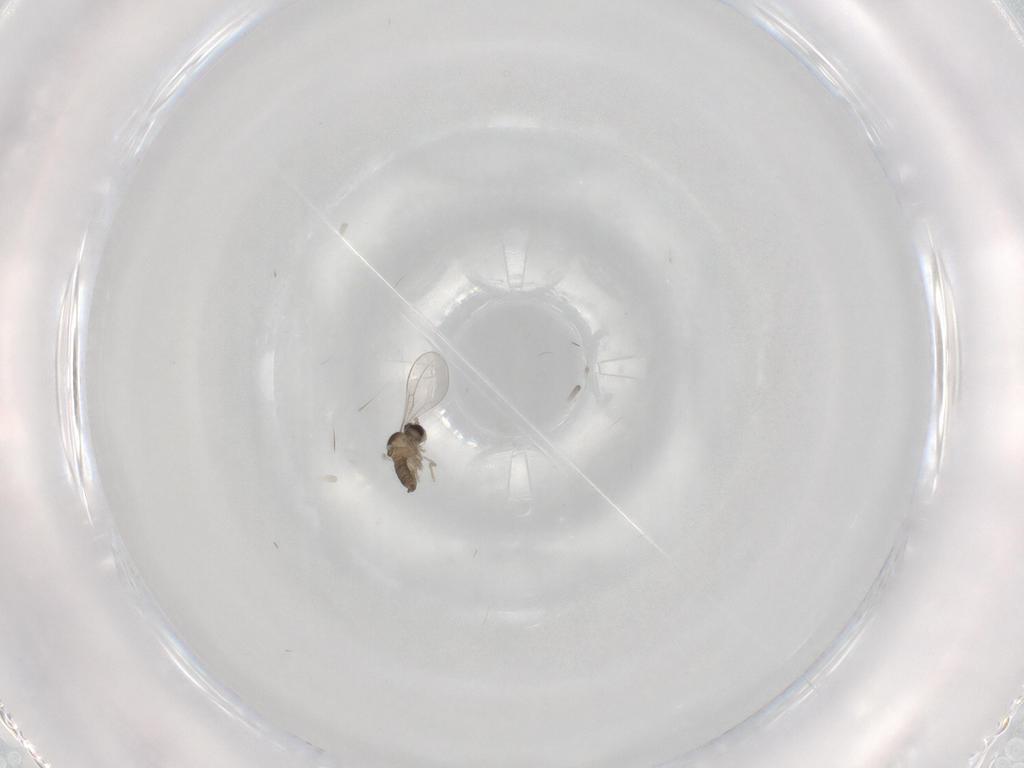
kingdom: Animalia
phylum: Arthropoda
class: Insecta
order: Diptera
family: Cecidomyiidae
